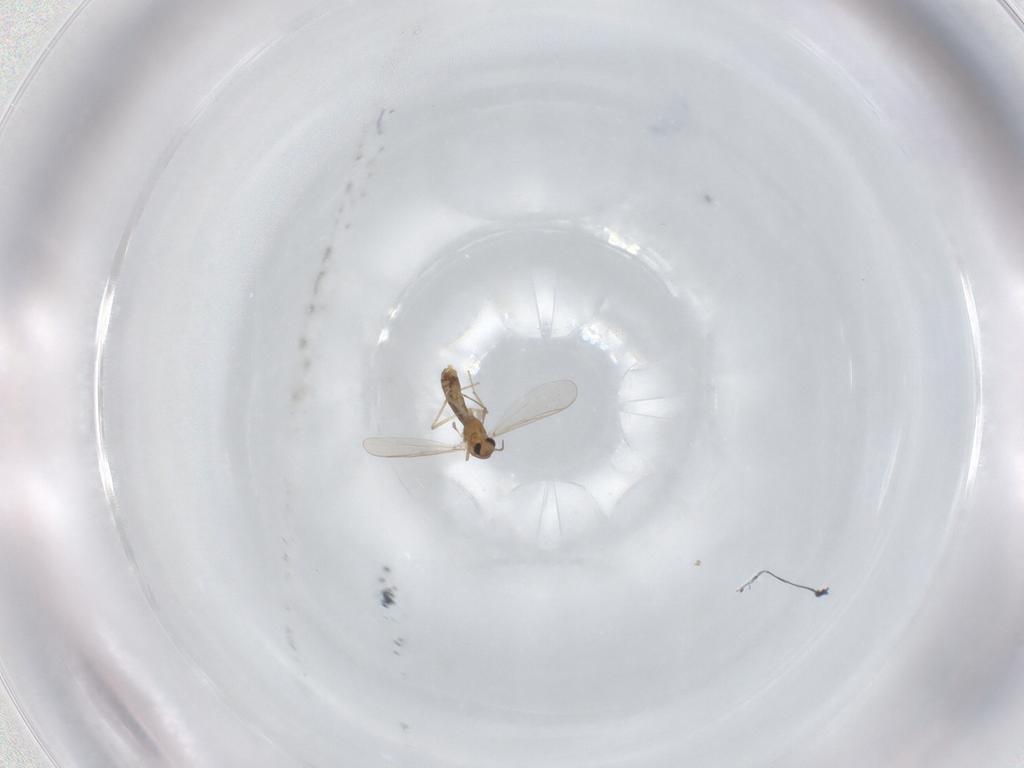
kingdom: Animalia
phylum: Arthropoda
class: Insecta
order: Diptera
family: Chironomidae
